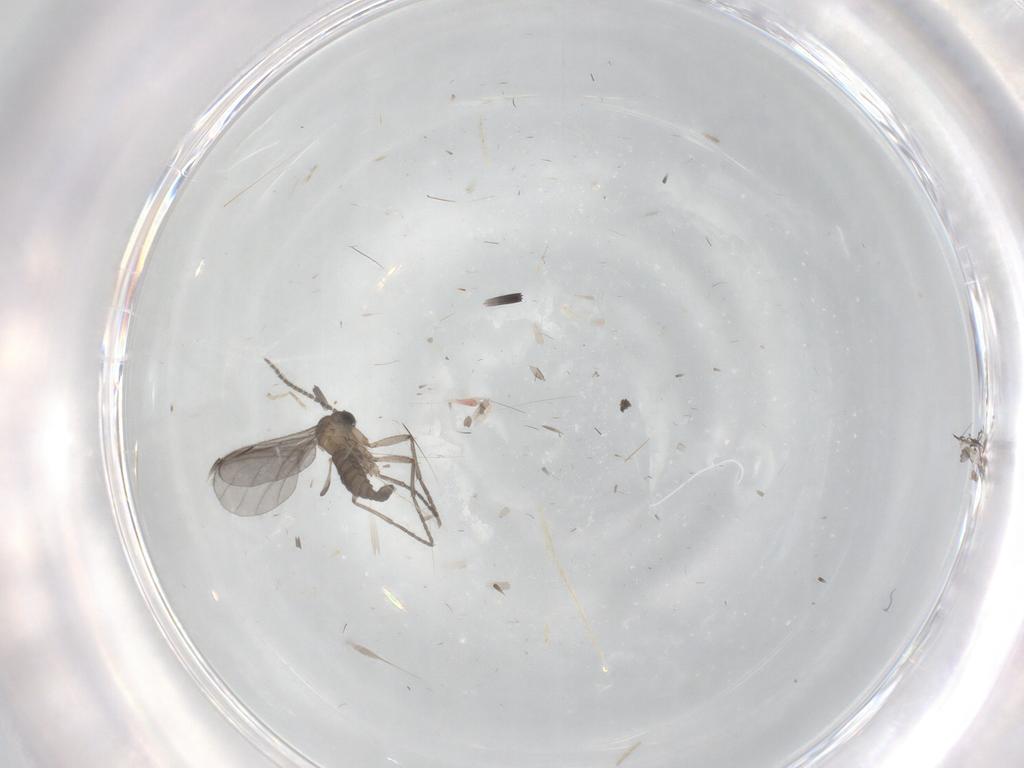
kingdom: Animalia
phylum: Arthropoda
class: Insecta
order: Diptera
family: Sciaridae
